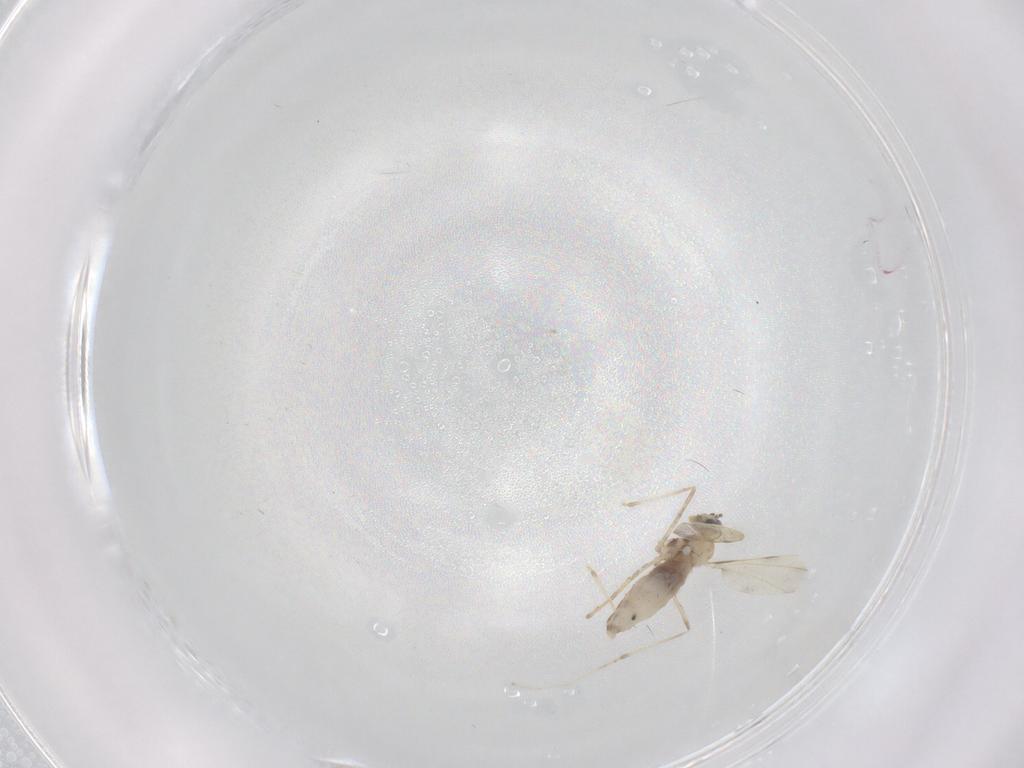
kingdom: Animalia
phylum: Arthropoda
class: Insecta
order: Diptera
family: Cecidomyiidae
